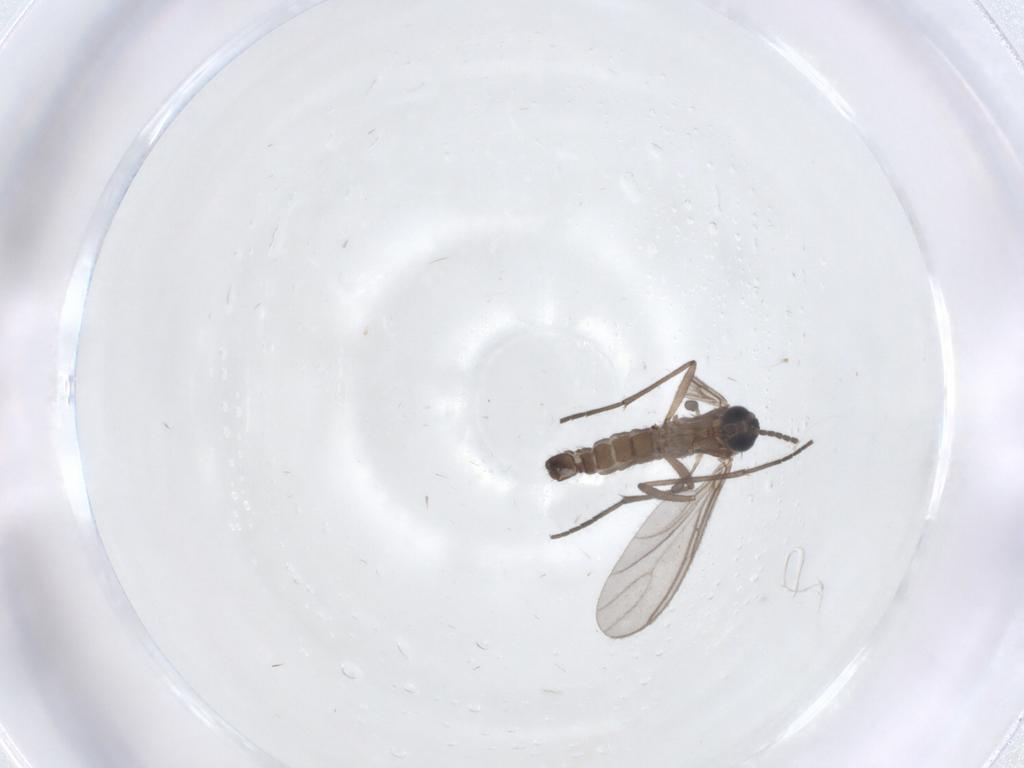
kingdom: Animalia
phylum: Arthropoda
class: Insecta
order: Diptera
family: Sciaridae
